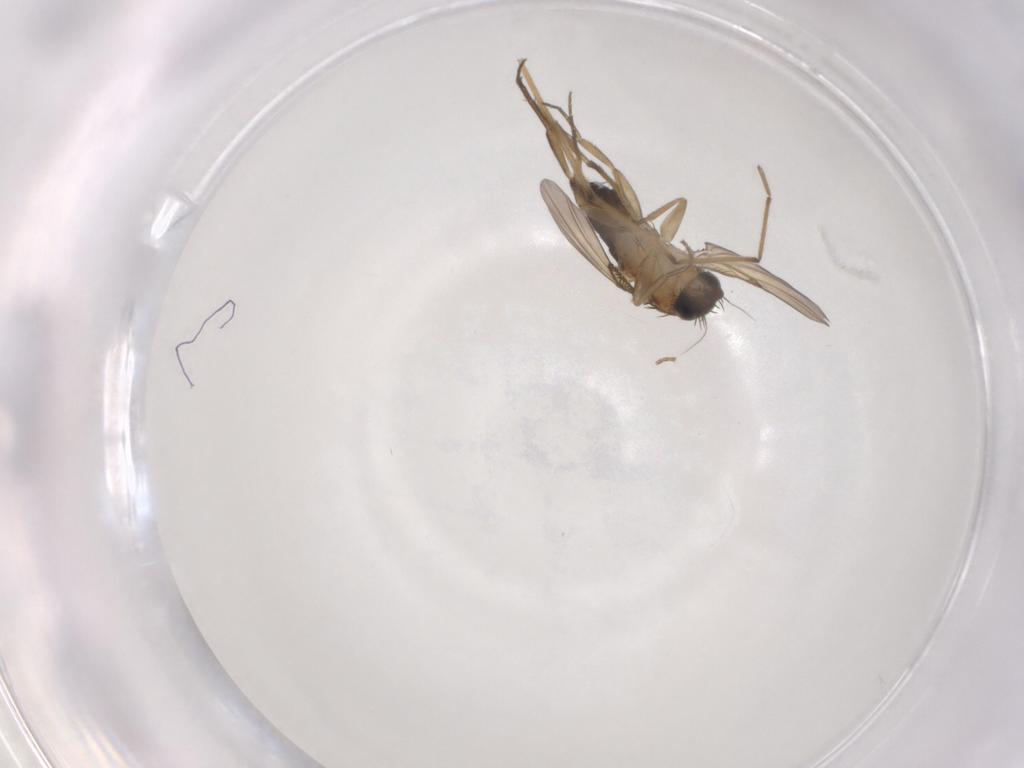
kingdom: Animalia
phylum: Arthropoda
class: Insecta
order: Diptera
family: Phoridae
